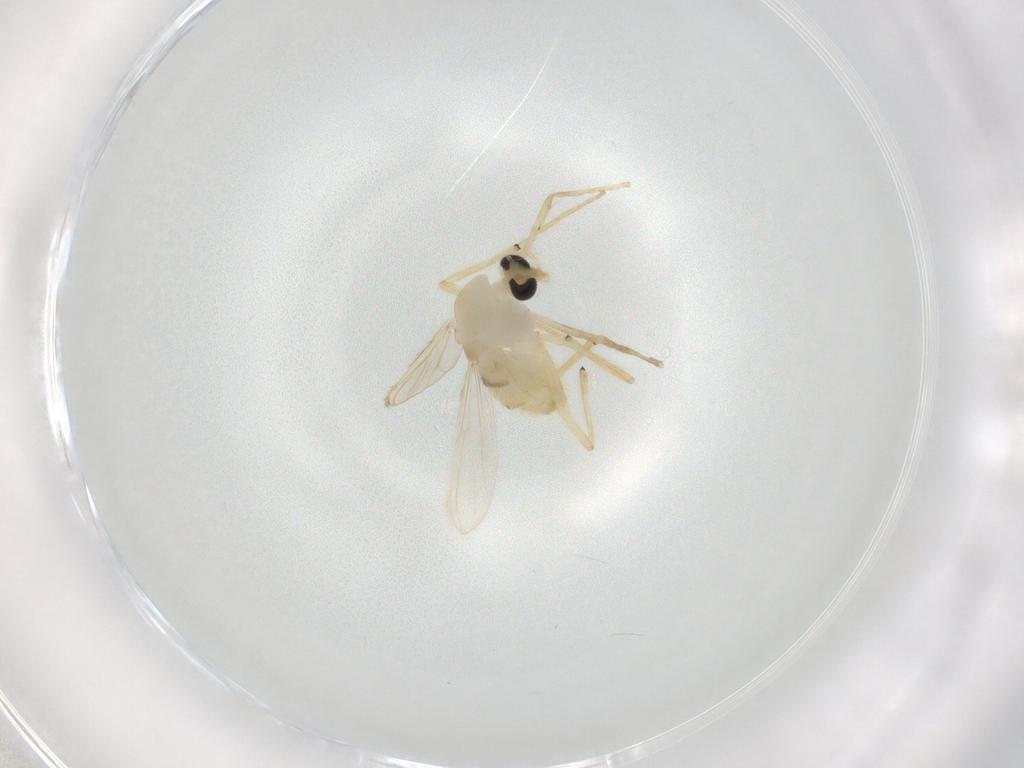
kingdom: Animalia
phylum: Arthropoda
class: Insecta
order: Diptera
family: Chironomidae
